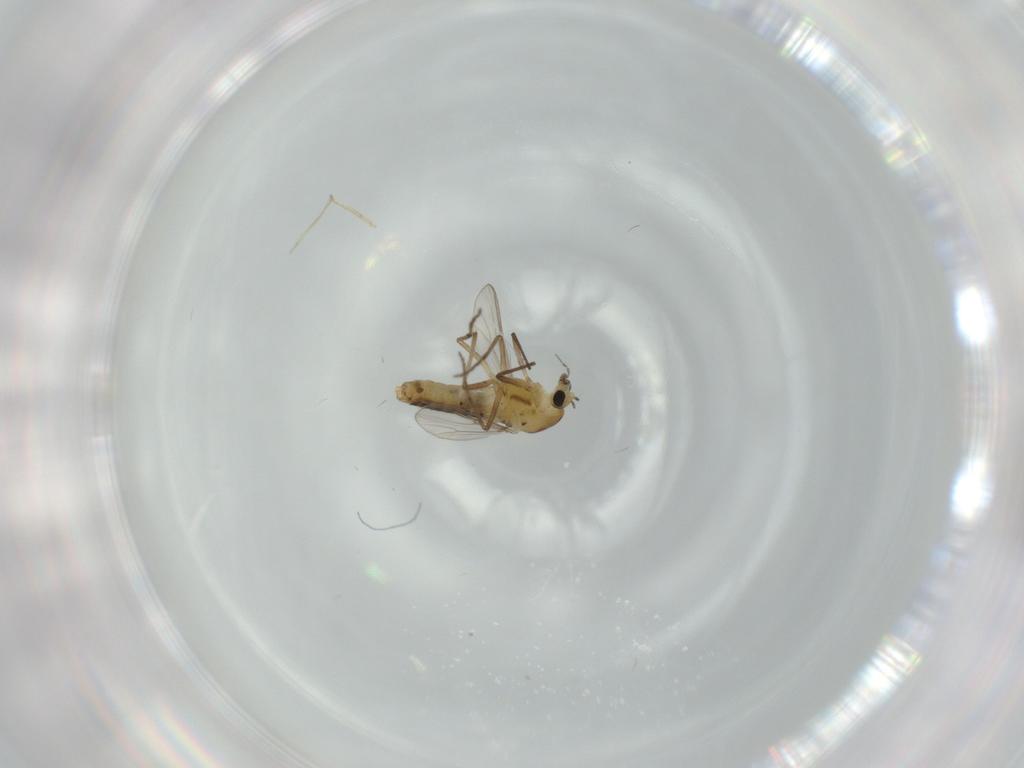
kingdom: Animalia
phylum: Arthropoda
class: Insecta
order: Diptera
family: Chironomidae
